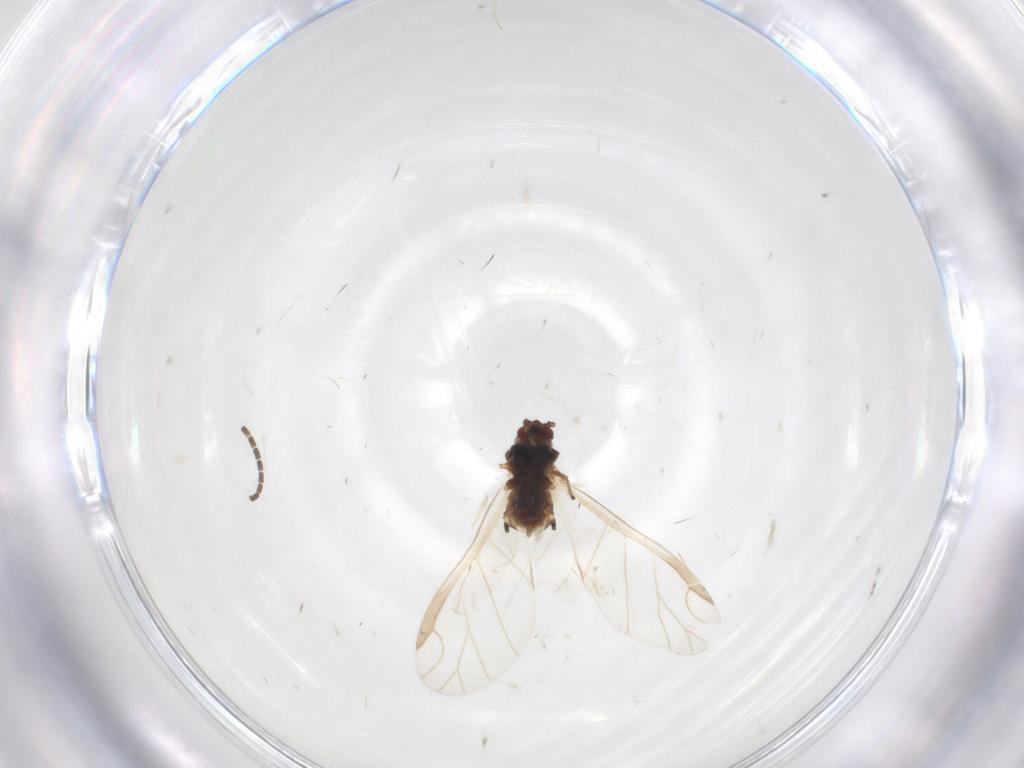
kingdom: Animalia
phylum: Arthropoda
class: Insecta
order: Hemiptera
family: Aphididae
